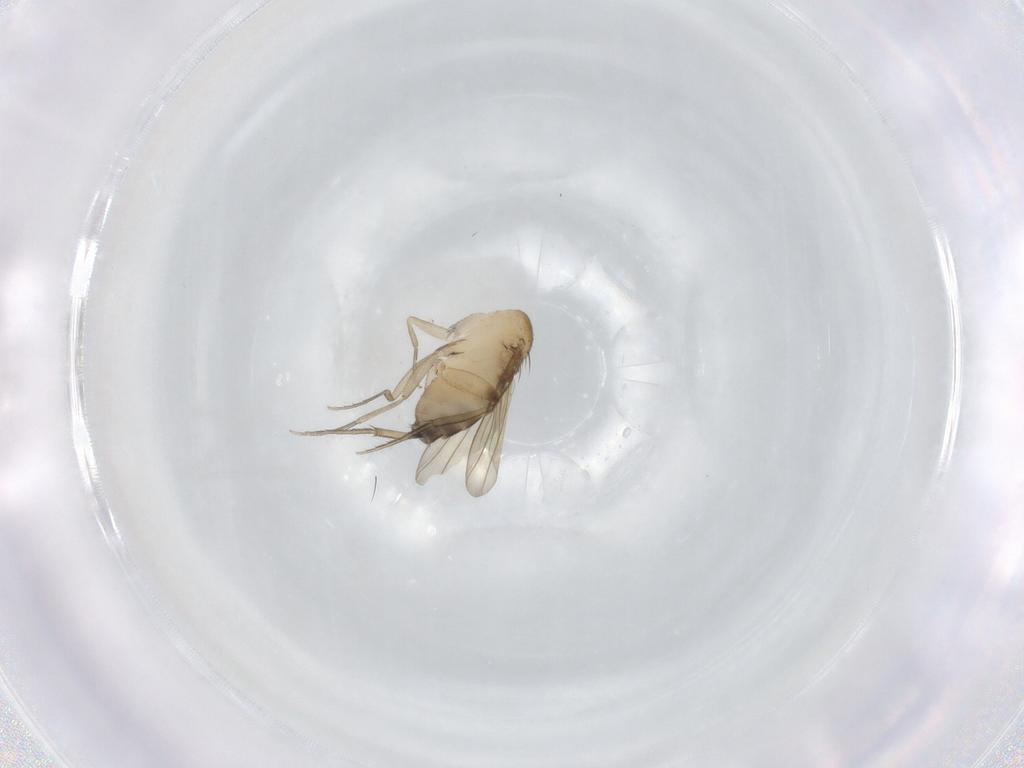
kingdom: Animalia
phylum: Arthropoda
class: Insecta
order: Diptera
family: Phoridae
